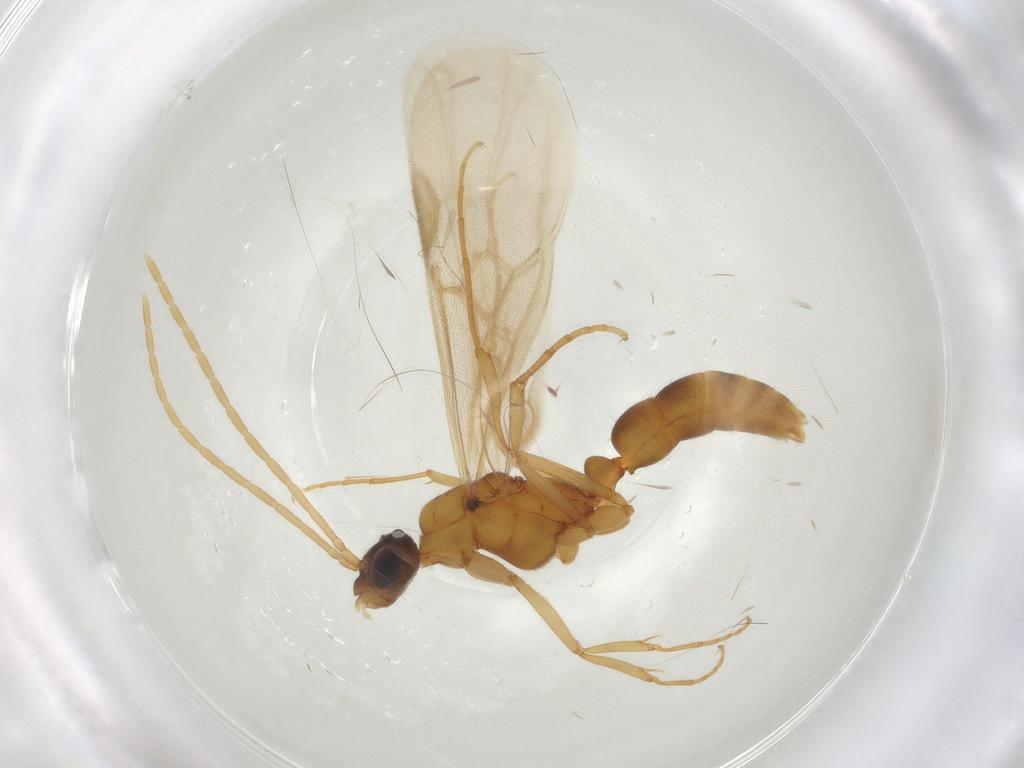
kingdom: Animalia
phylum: Arthropoda
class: Insecta
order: Hymenoptera
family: Formicidae
